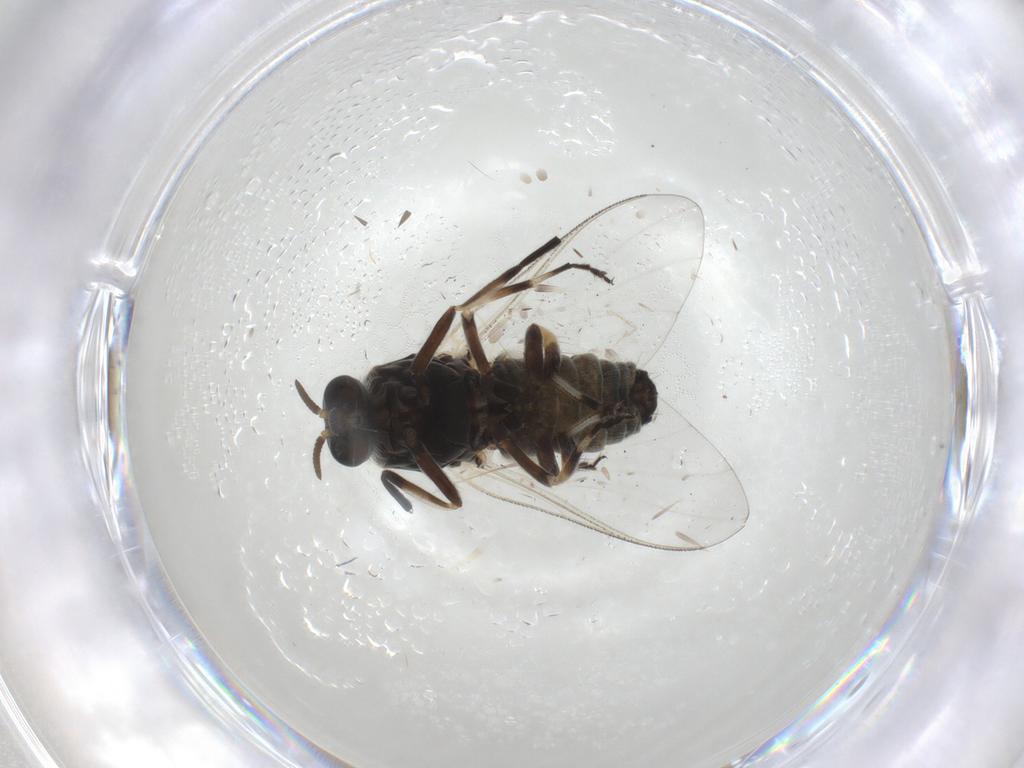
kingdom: Animalia
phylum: Arthropoda
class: Insecta
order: Diptera
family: Simuliidae
